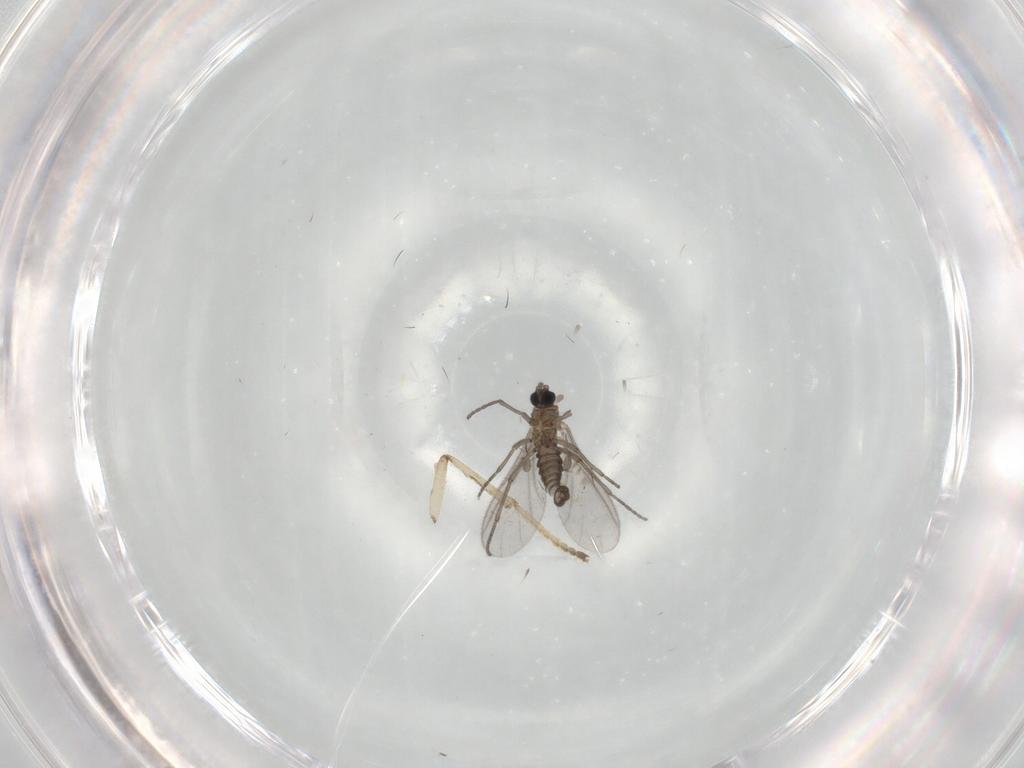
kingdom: Animalia
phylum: Arthropoda
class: Insecta
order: Diptera
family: Sciaridae
